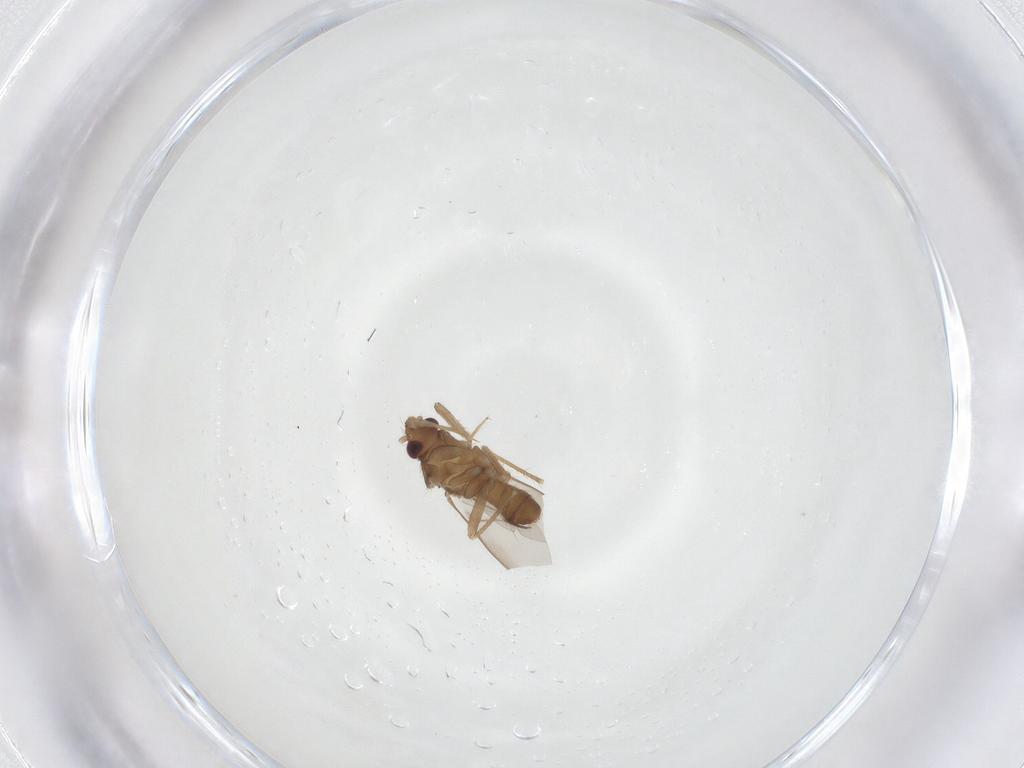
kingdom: Animalia
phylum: Arthropoda
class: Insecta
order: Hemiptera
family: Ceratocombidae
